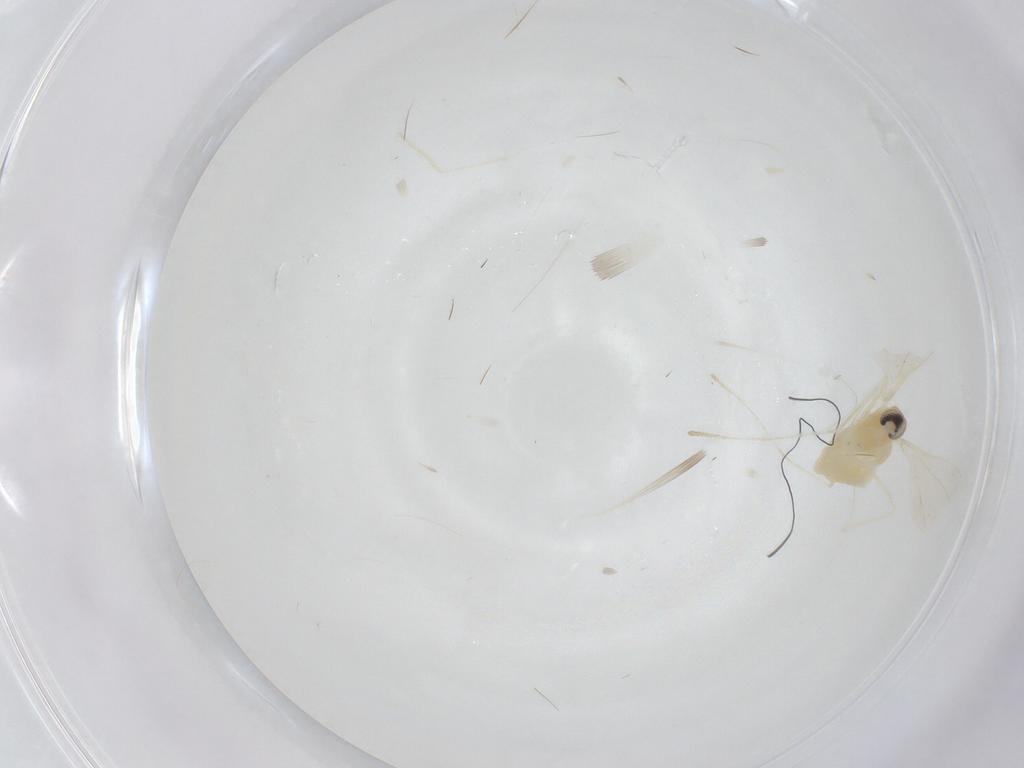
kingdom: Animalia
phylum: Arthropoda
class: Insecta
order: Diptera
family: Cecidomyiidae
